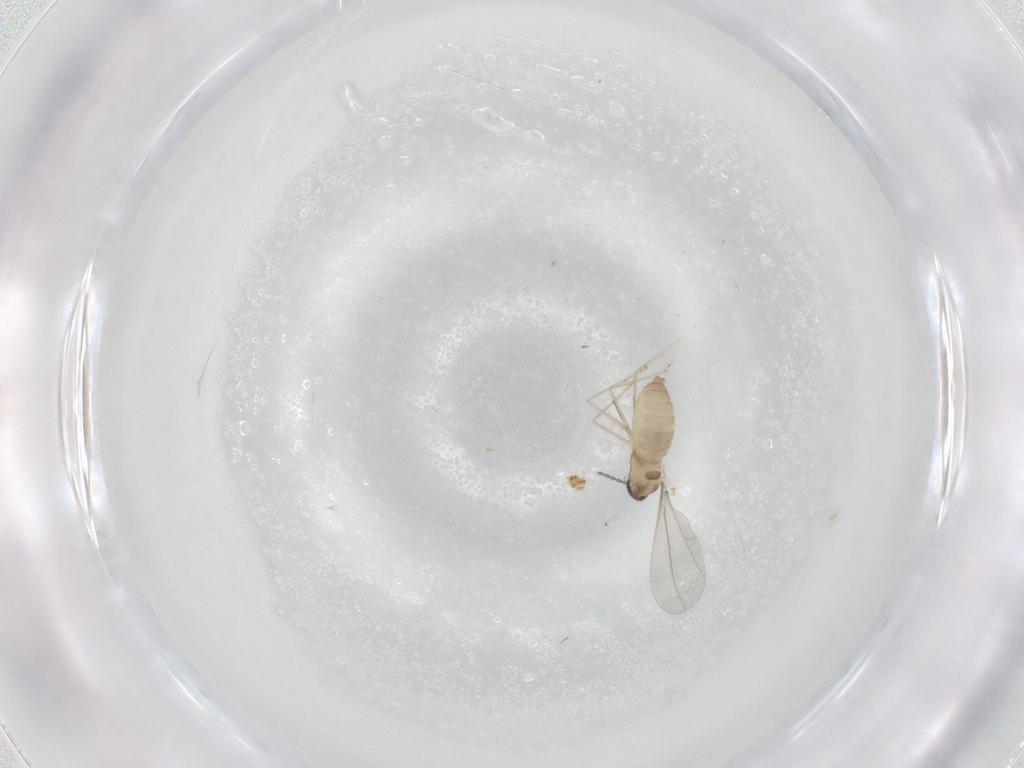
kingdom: Animalia
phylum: Arthropoda
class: Insecta
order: Diptera
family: Cecidomyiidae
